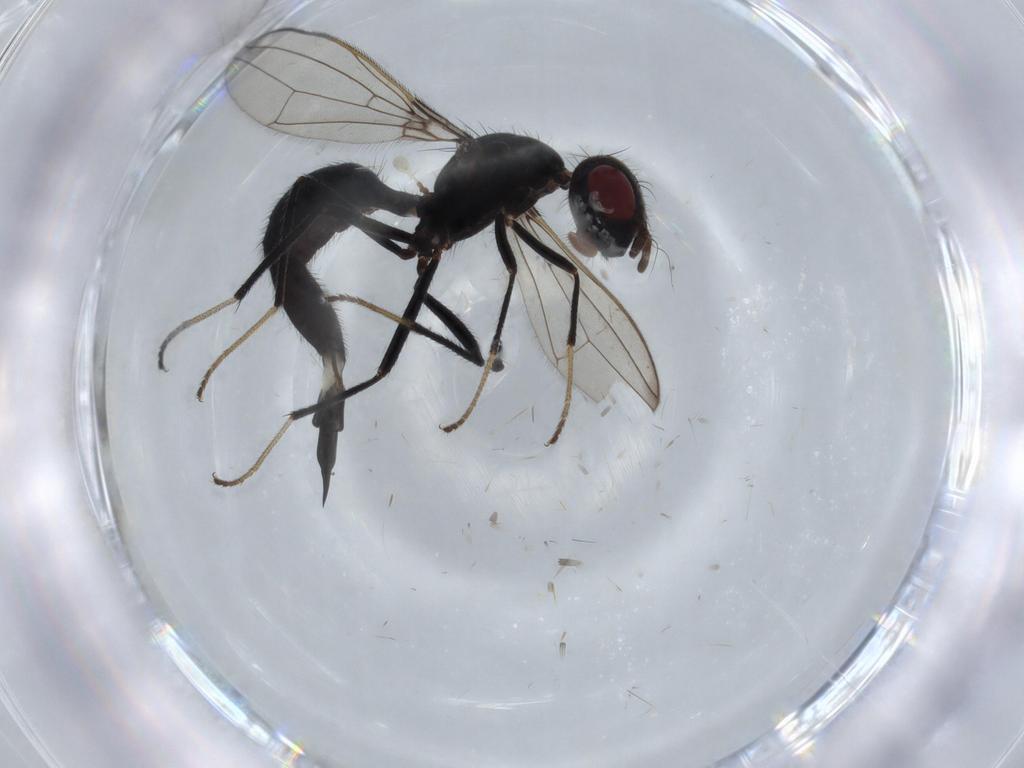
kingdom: Animalia
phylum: Arthropoda
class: Insecta
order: Diptera
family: Richardiidae
